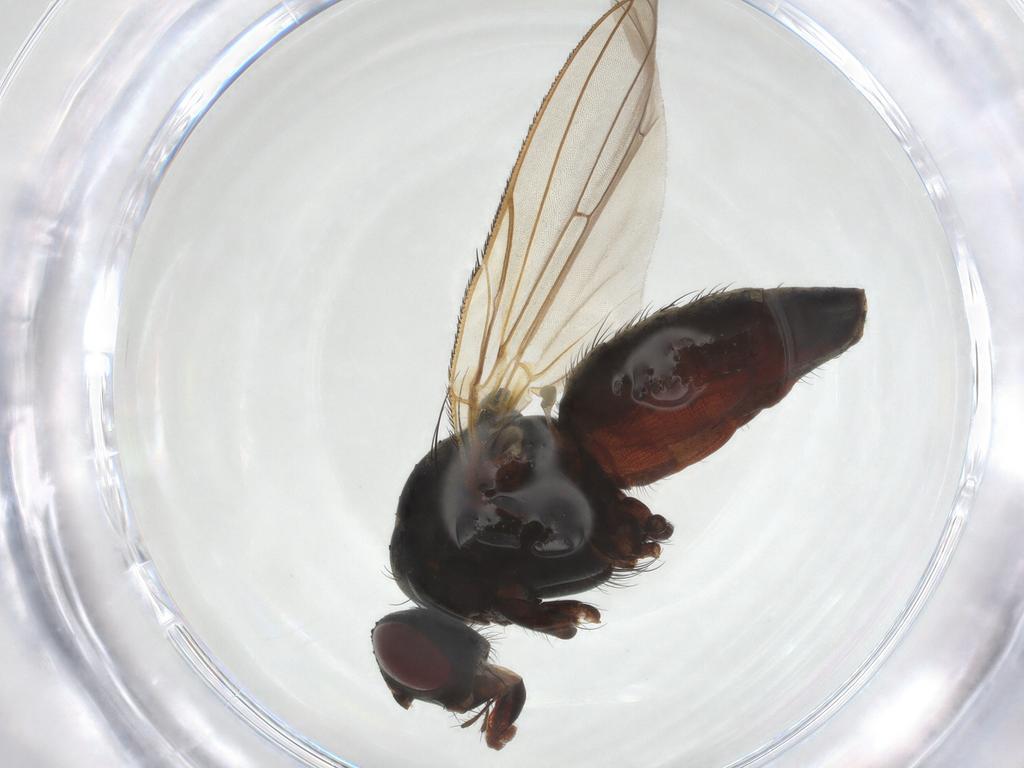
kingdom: Animalia
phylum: Arthropoda
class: Insecta
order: Diptera
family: Anthomyiidae
